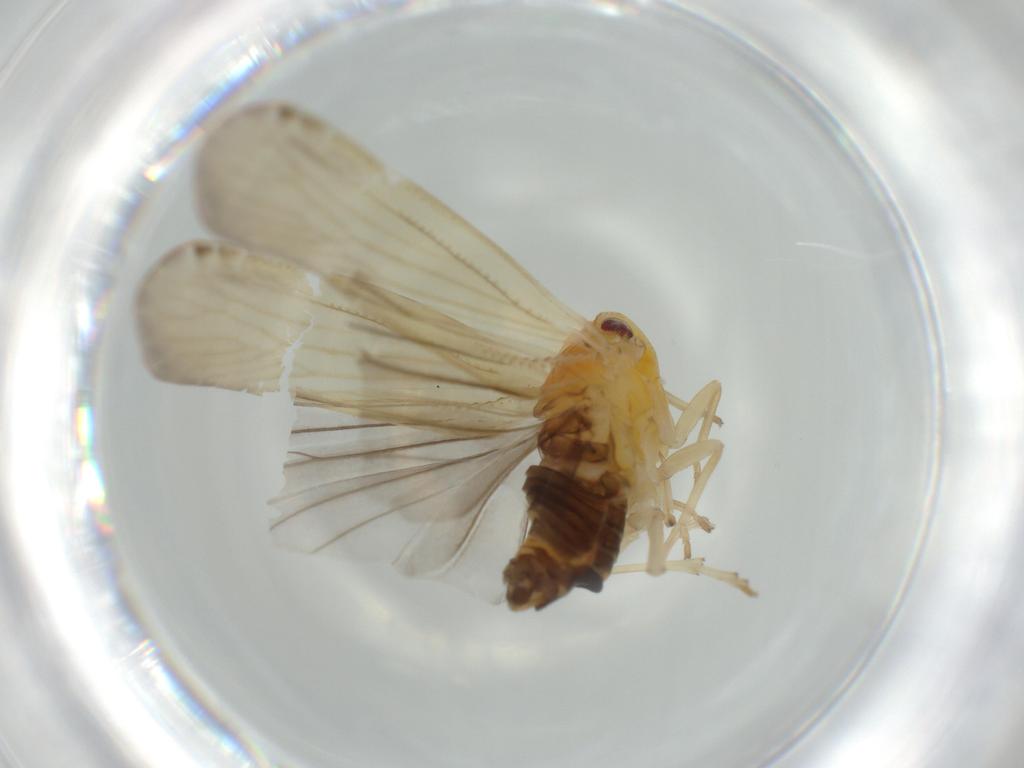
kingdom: Animalia
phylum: Arthropoda
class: Insecta
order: Hemiptera
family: Derbidae
